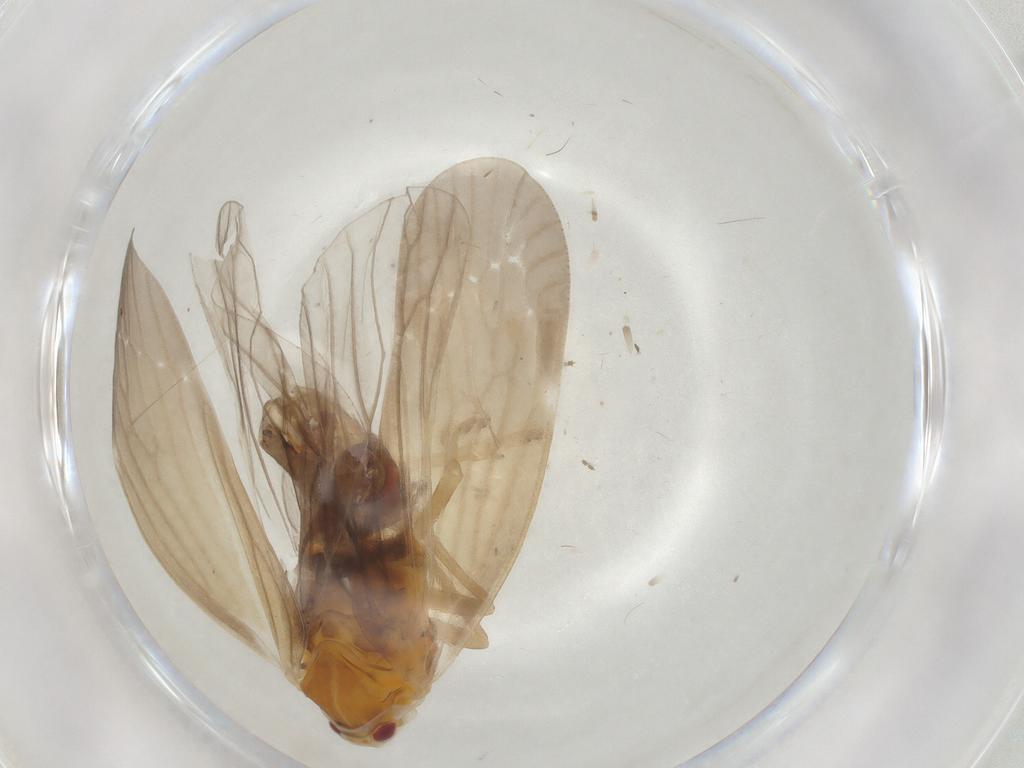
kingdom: Animalia
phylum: Arthropoda
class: Insecta
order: Hemiptera
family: Derbidae
